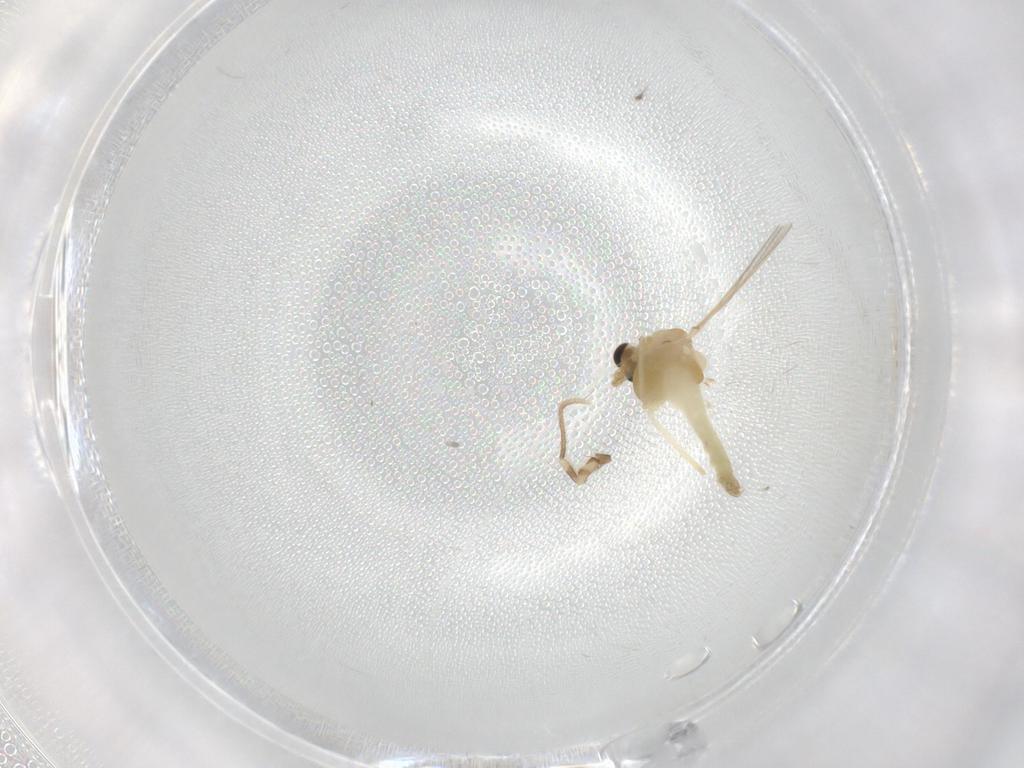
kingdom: Animalia
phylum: Arthropoda
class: Insecta
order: Diptera
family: Chironomidae
